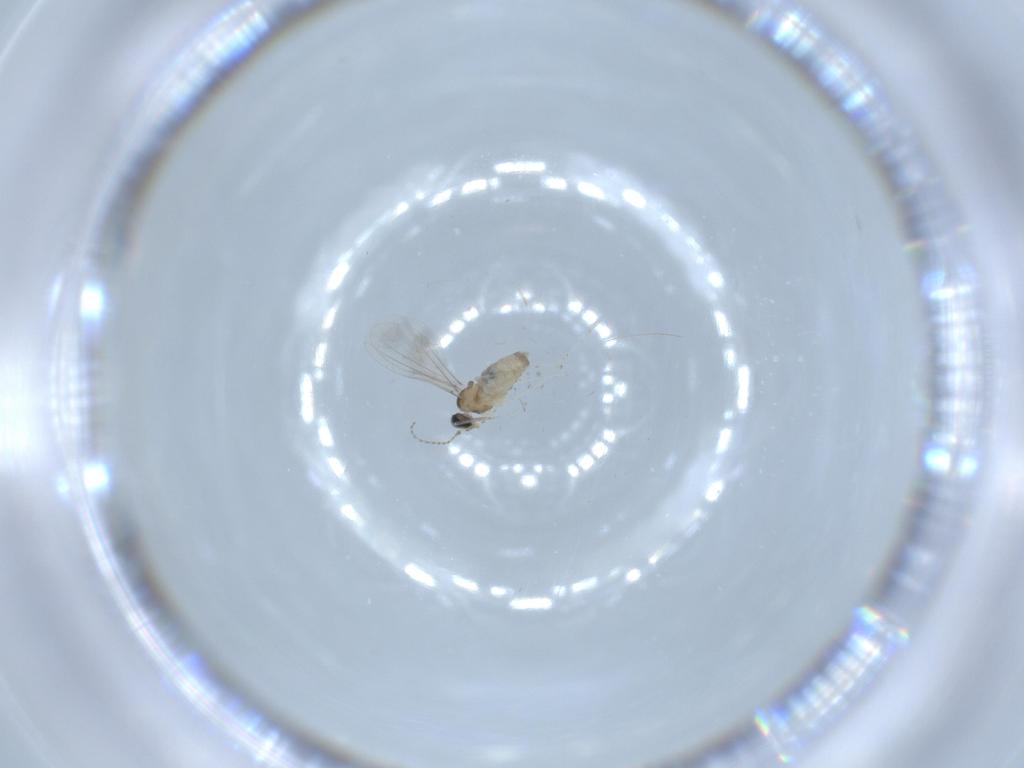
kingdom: Animalia
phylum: Arthropoda
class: Insecta
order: Diptera
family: Cecidomyiidae
